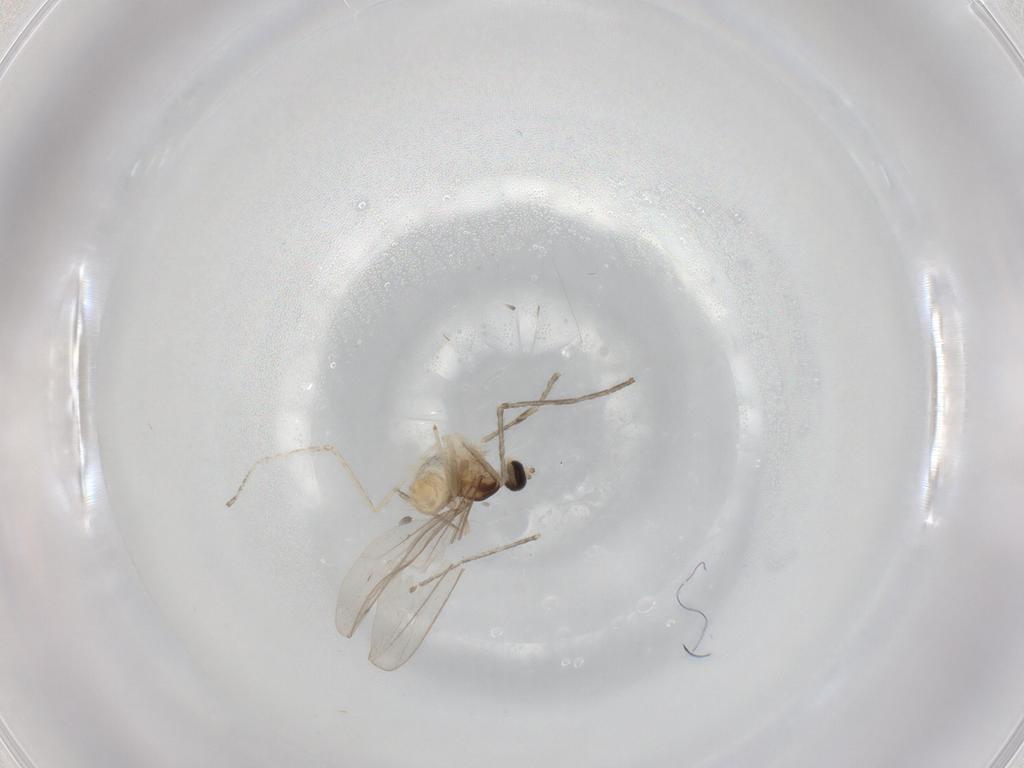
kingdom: Animalia
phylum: Arthropoda
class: Insecta
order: Diptera
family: Cecidomyiidae
